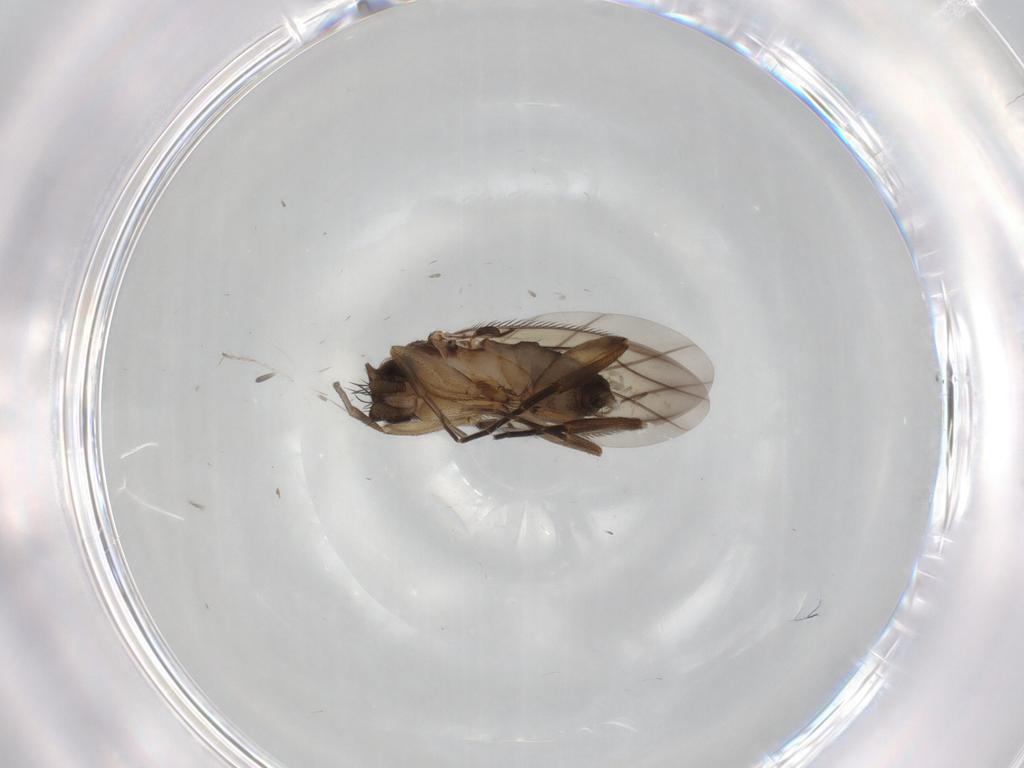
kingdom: Animalia
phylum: Arthropoda
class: Insecta
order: Diptera
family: Phoridae
